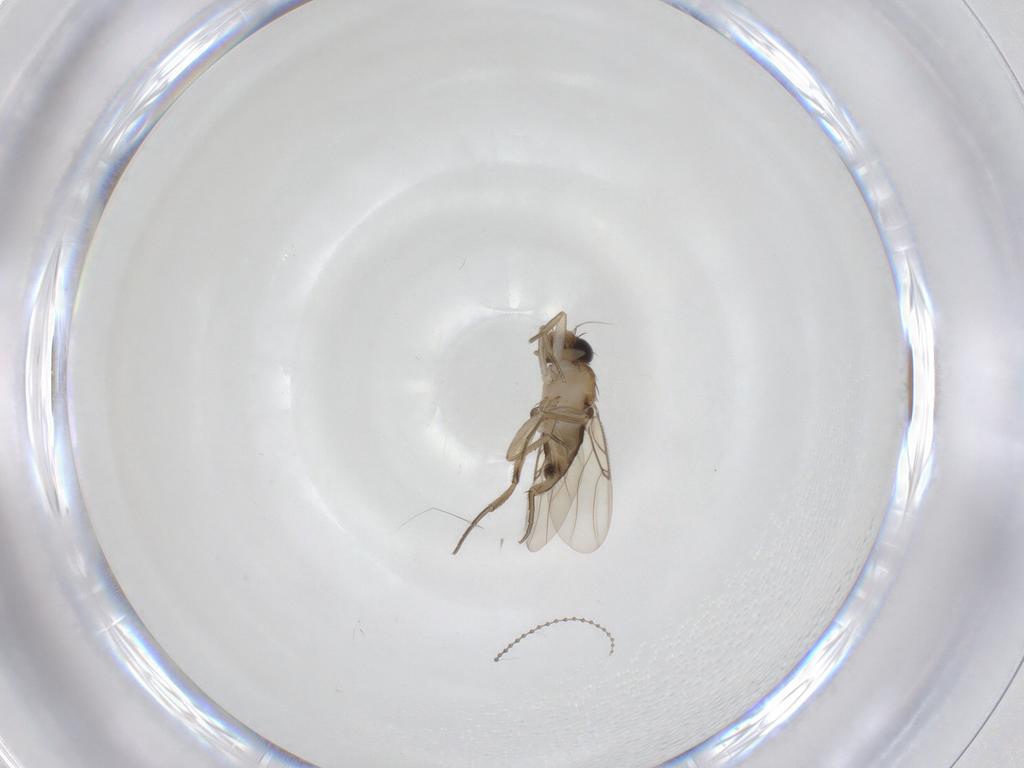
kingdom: Animalia
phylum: Arthropoda
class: Insecta
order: Diptera
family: Phoridae
